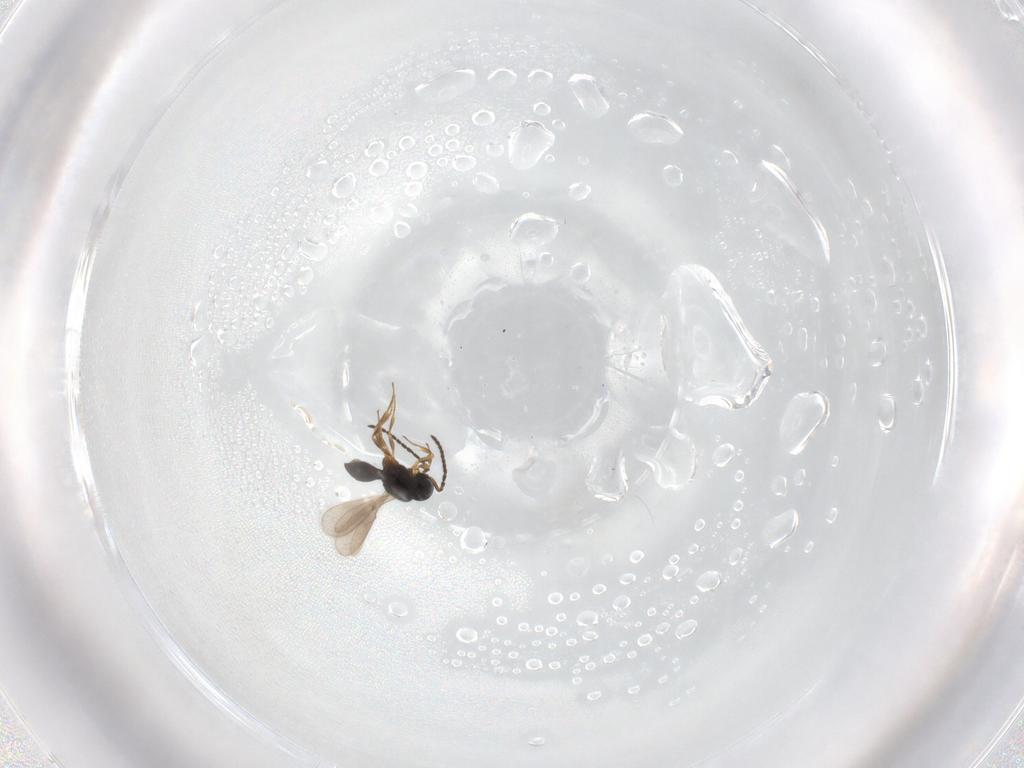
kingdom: Animalia
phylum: Arthropoda
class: Insecta
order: Hymenoptera
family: Scelionidae
